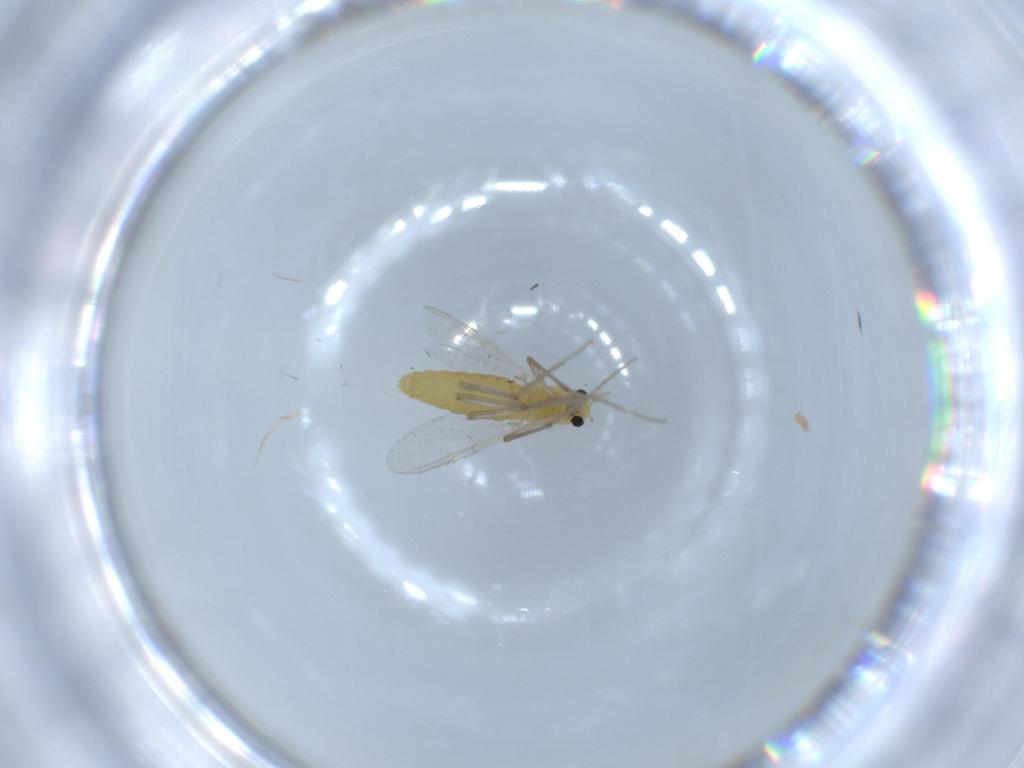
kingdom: Animalia
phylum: Arthropoda
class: Insecta
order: Diptera
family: Chironomidae
